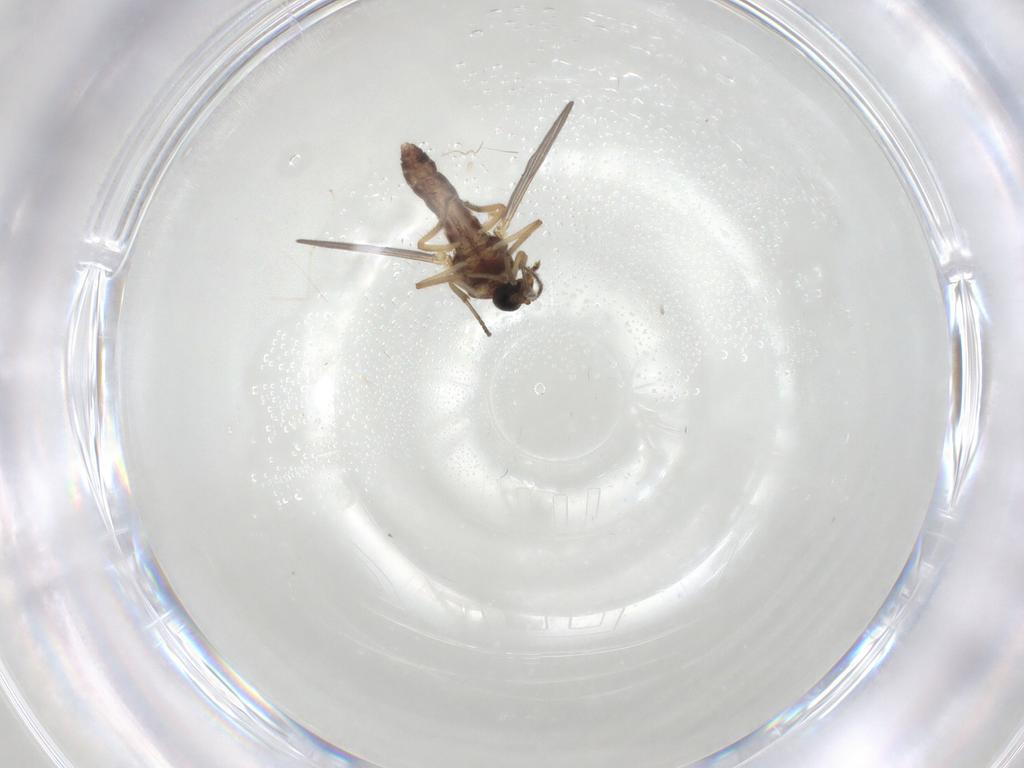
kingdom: Animalia
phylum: Arthropoda
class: Insecta
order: Diptera
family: Ceratopogonidae
